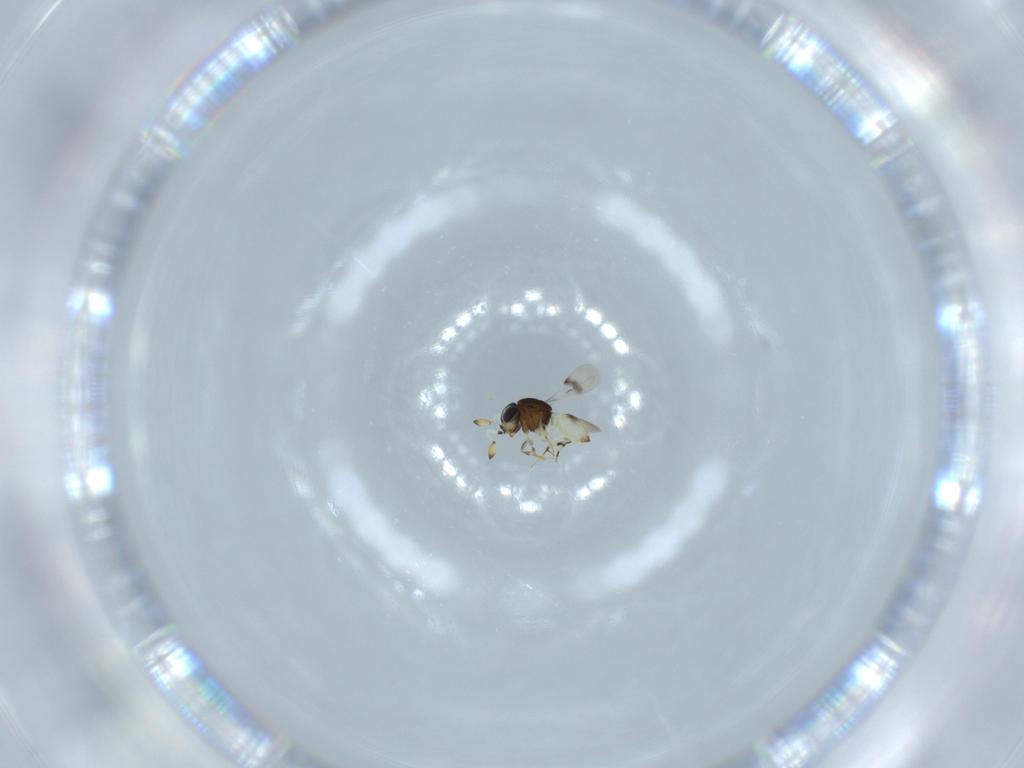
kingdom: Animalia
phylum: Arthropoda
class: Insecta
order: Hymenoptera
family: Scelionidae
